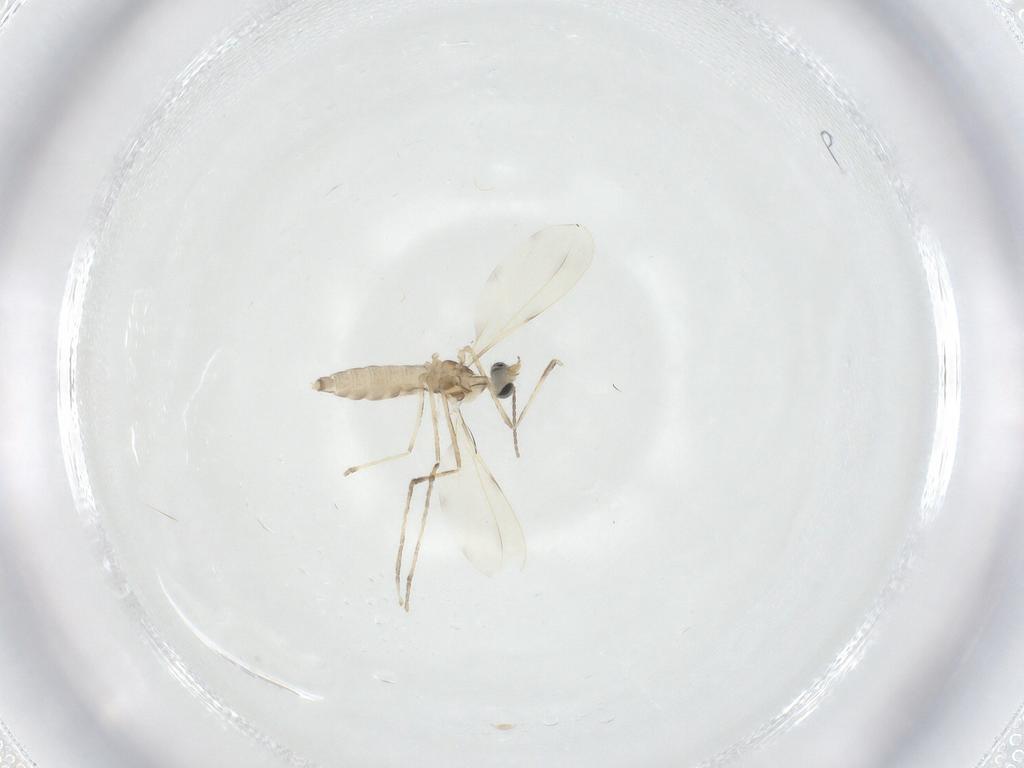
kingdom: Animalia
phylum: Arthropoda
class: Insecta
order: Diptera
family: Cecidomyiidae
